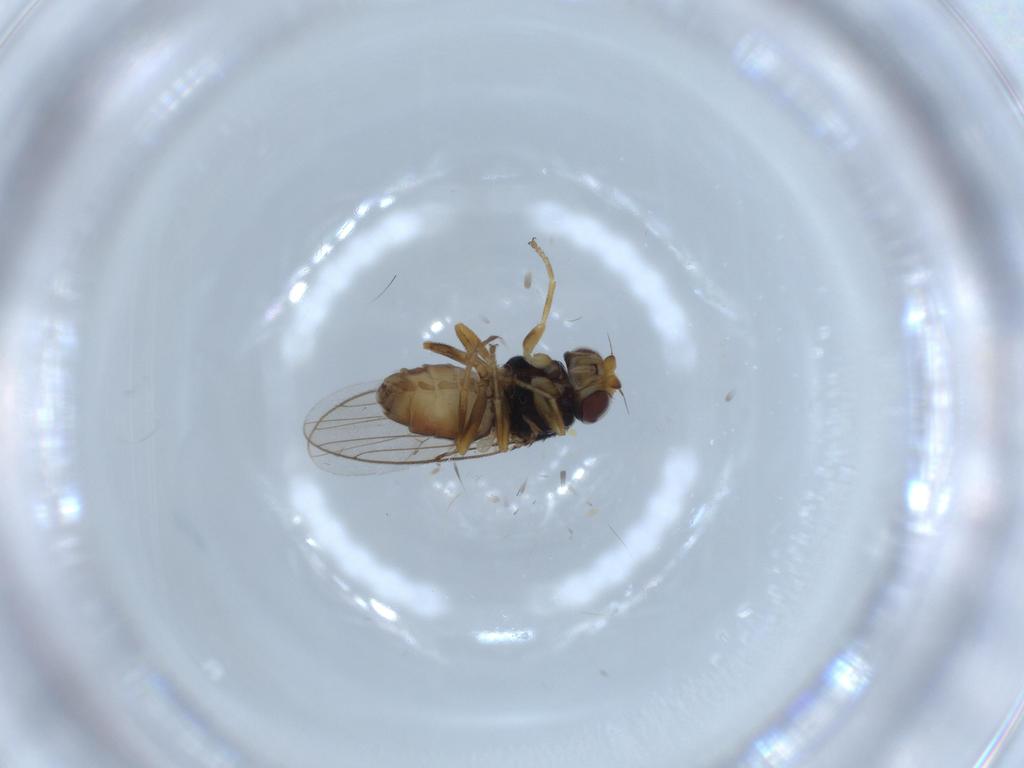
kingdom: Animalia
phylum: Arthropoda
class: Insecta
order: Diptera
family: Chloropidae
